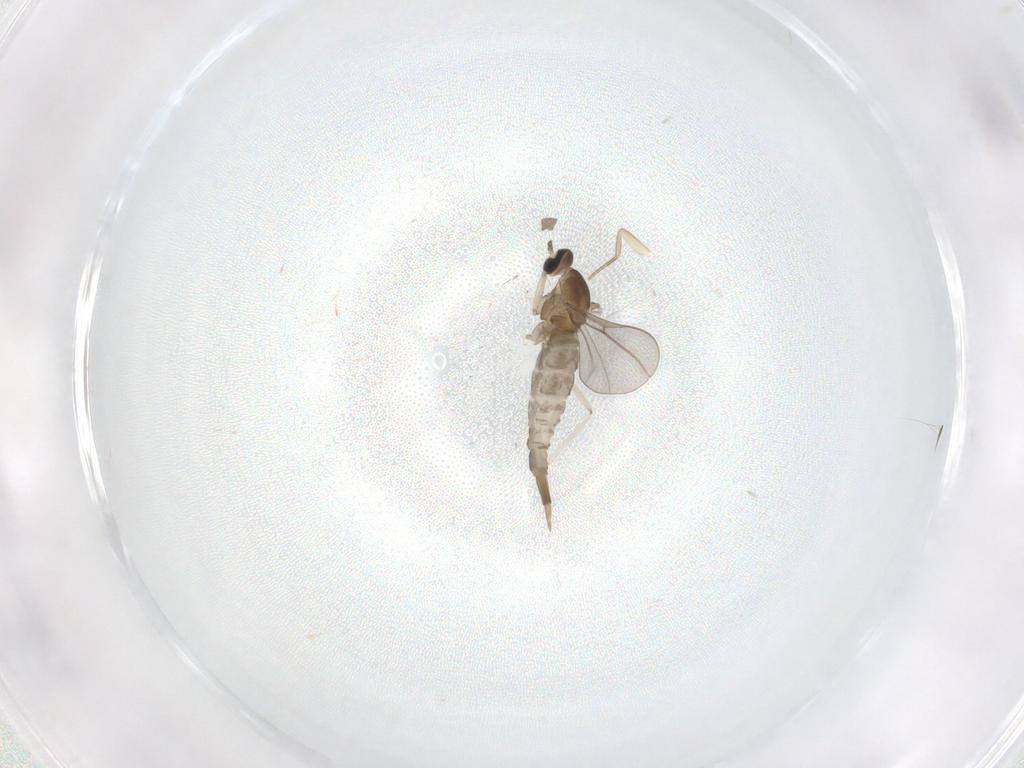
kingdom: Animalia
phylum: Arthropoda
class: Insecta
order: Diptera
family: Cecidomyiidae
